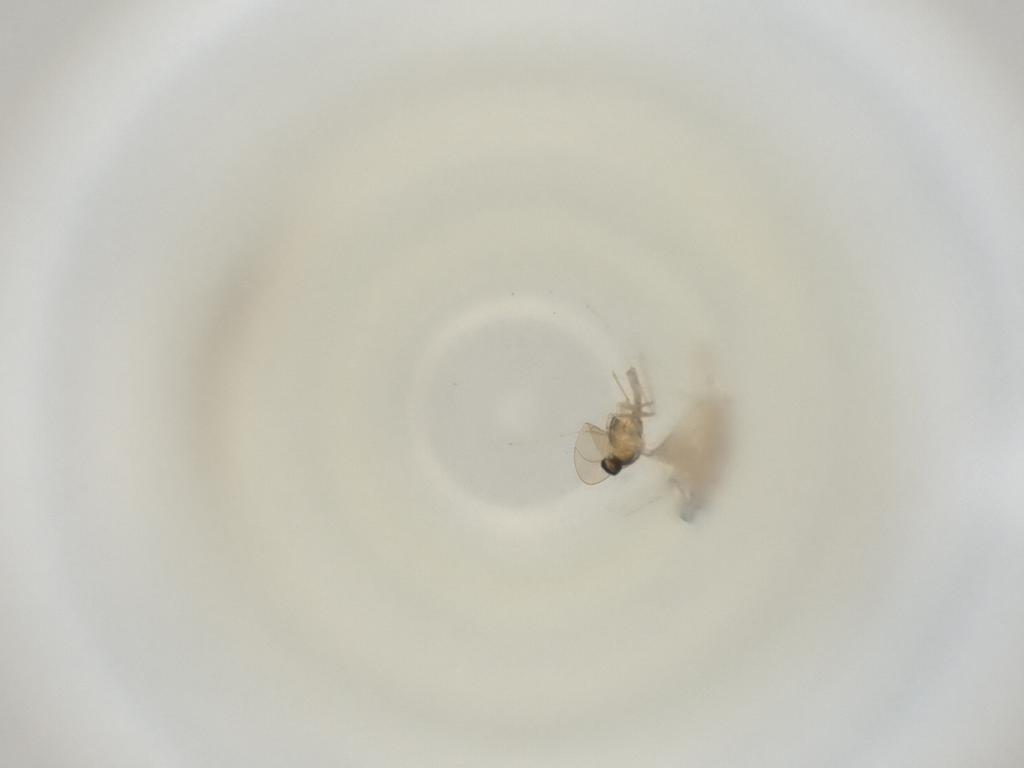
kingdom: Animalia
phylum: Arthropoda
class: Insecta
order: Diptera
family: Cecidomyiidae
